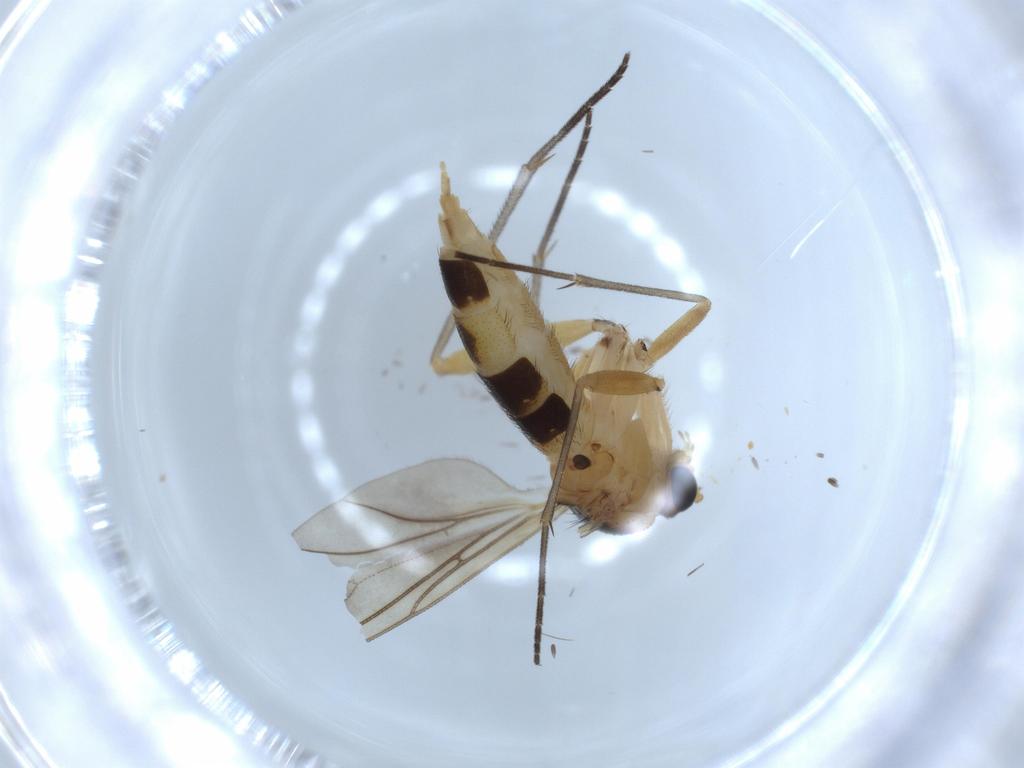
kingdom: Animalia
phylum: Arthropoda
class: Insecta
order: Diptera
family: Sciaridae
